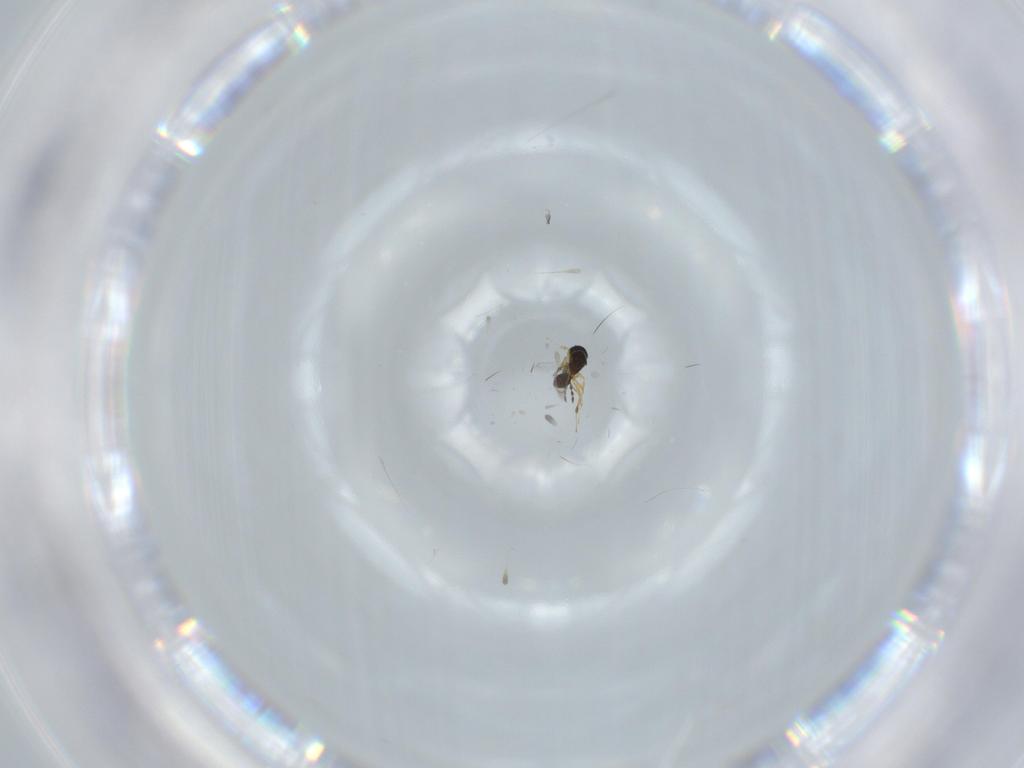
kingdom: Animalia
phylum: Arthropoda
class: Insecta
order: Hymenoptera
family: Platygastridae
